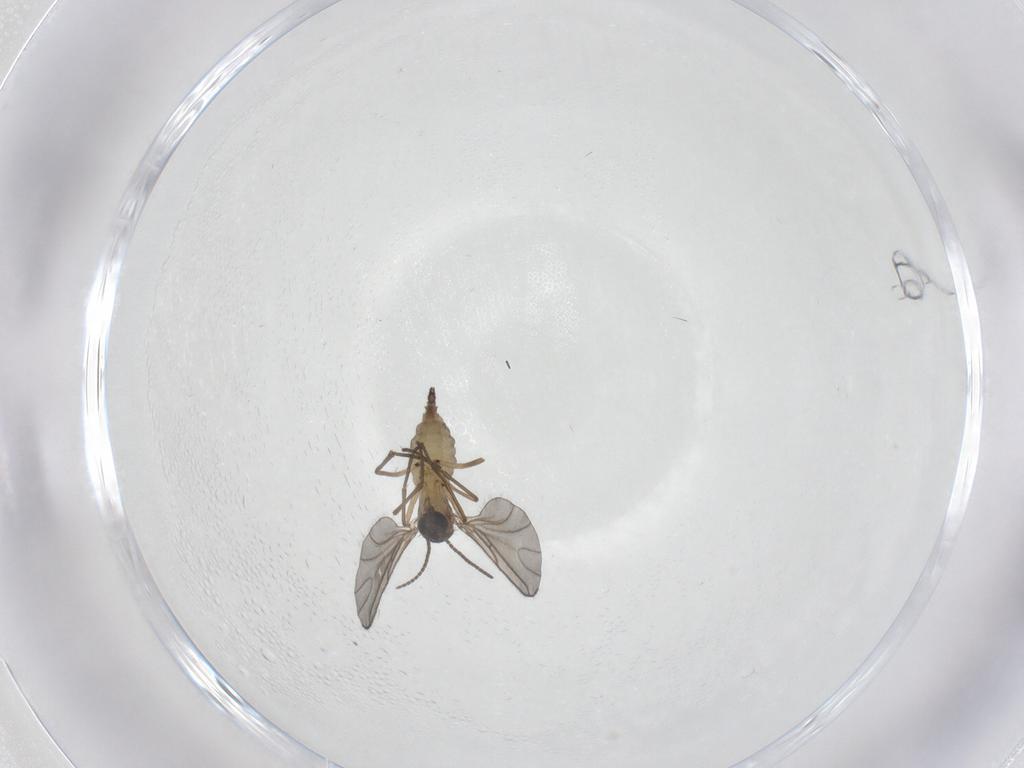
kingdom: Animalia
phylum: Arthropoda
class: Insecta
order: Diptera
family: Sciaridae
